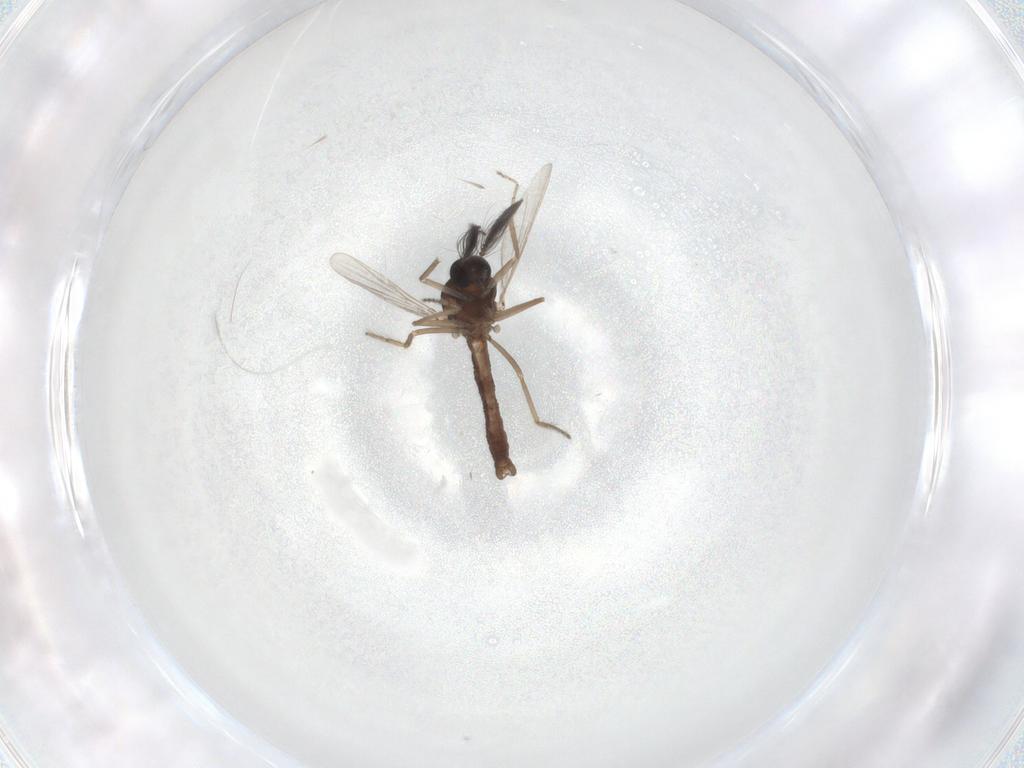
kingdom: Animalia
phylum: Arthropoda
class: Insecta
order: Diptera
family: Ceratopogonidae
